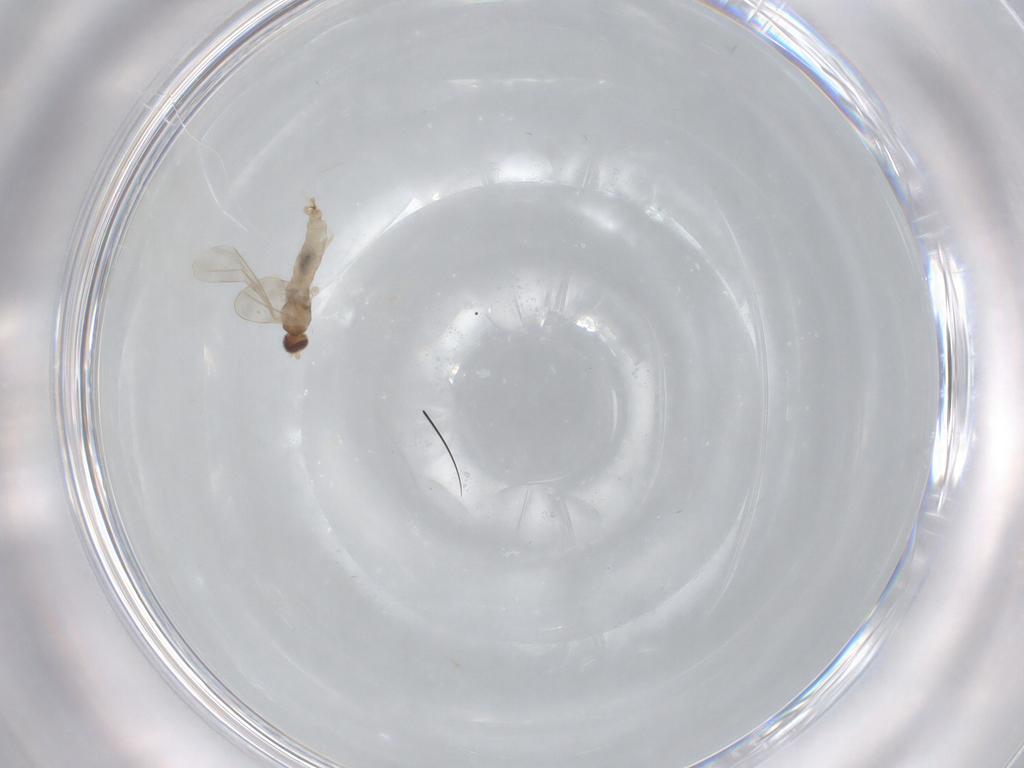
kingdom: Animalia
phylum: Arthropoda
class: Insecta
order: Diptera
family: Cecidomyiidae
